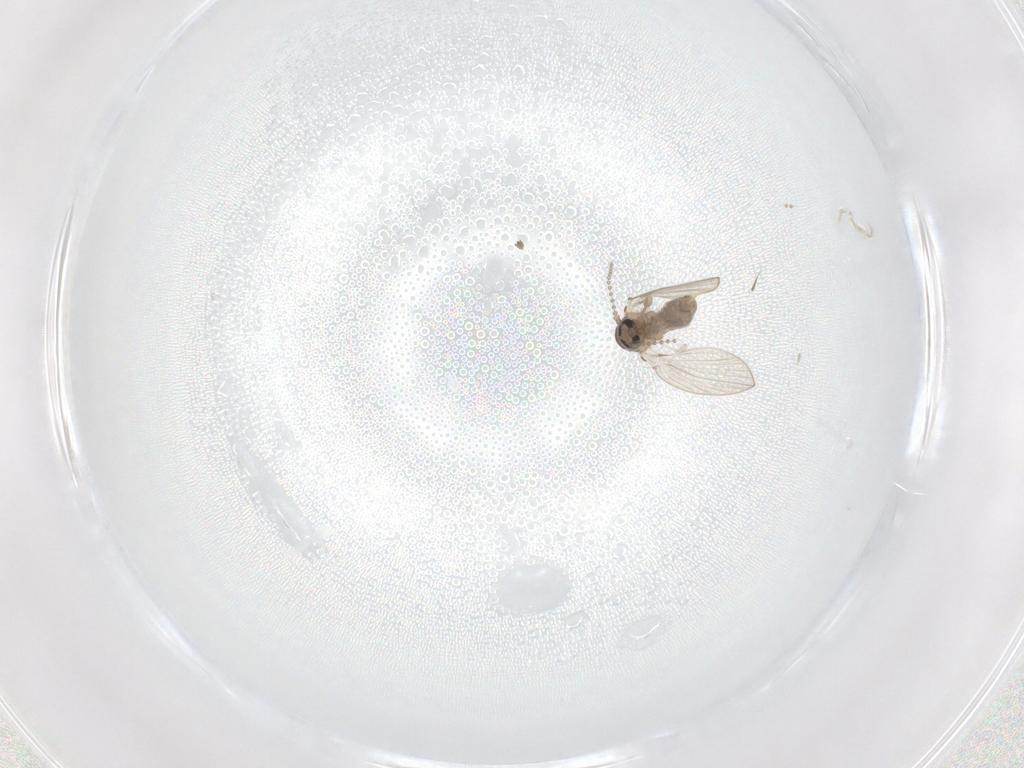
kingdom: Animalia
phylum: Arthropoda
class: Insecta
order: Diptera
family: Psychodidae
